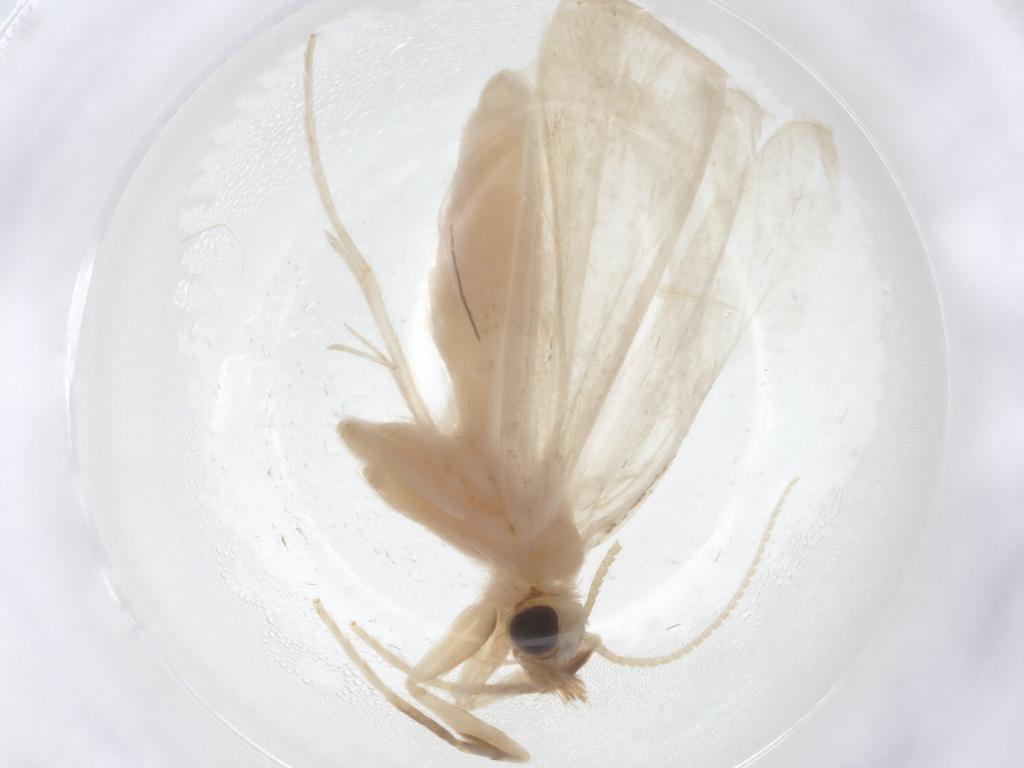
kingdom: Animalia
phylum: Arthropoda
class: Insecta
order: Lepidoptera
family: Crambidae
